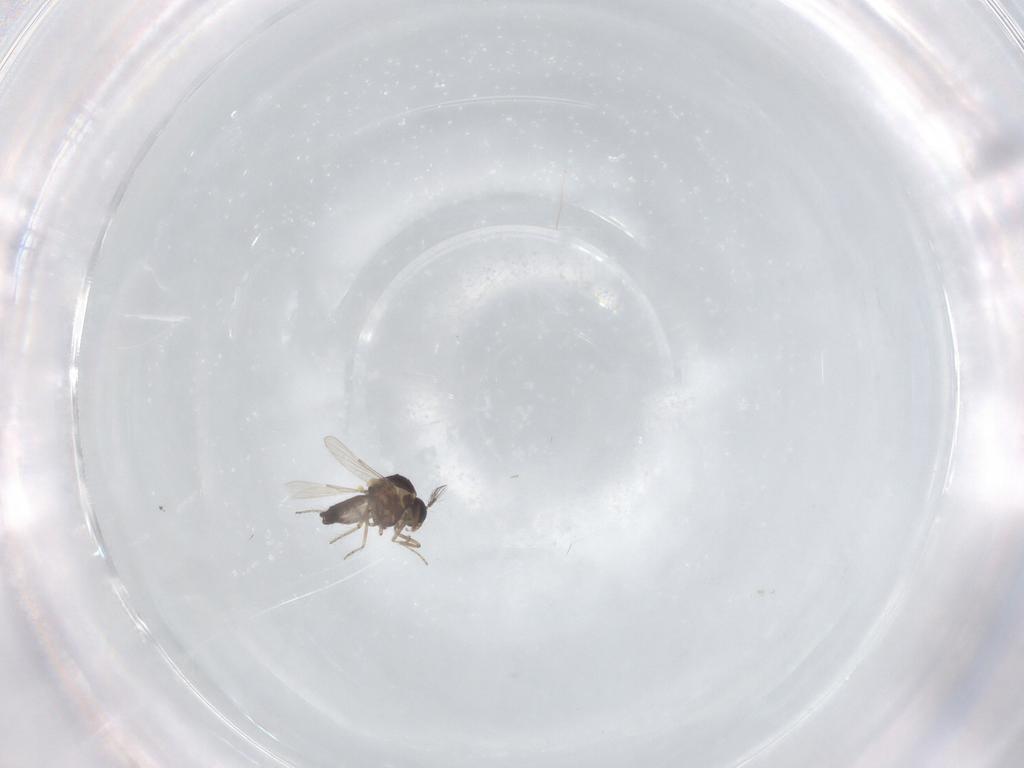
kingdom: Animalia
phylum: Arthropoda
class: Insecta
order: Diptera
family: Ceratopogonidae
